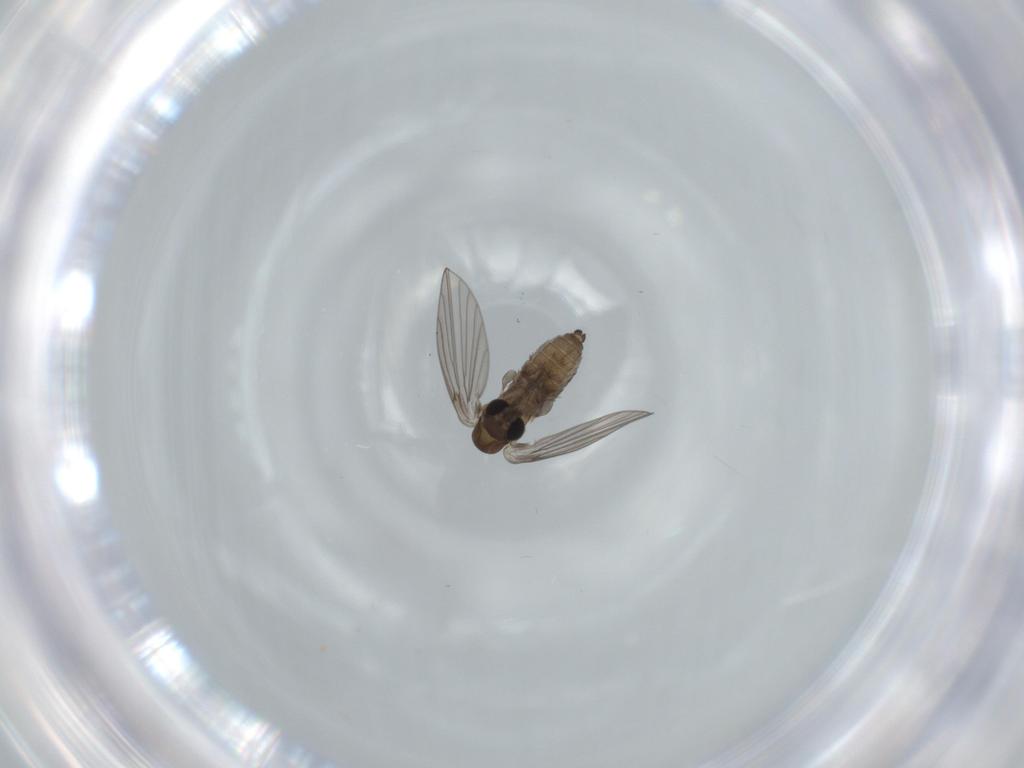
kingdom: Animalia
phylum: Arthropoda
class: Insecta
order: Diptera
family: Psychodidae
